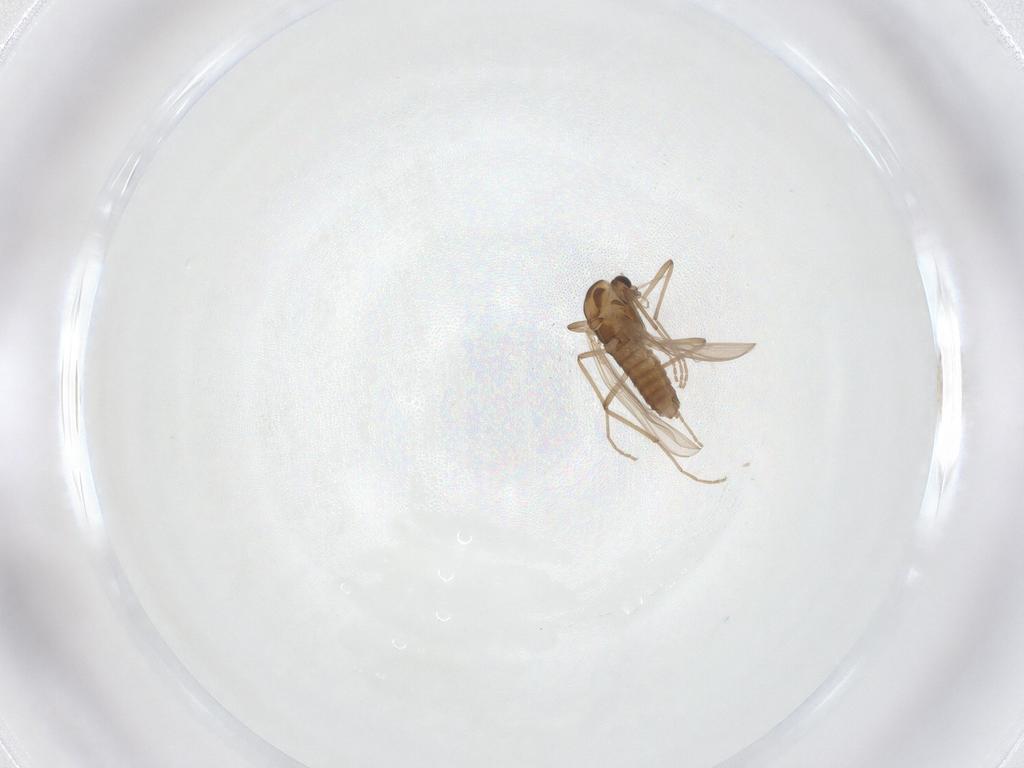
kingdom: Animalia
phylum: Arthropoda
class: Insecta
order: Diptera
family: Chironomidae
